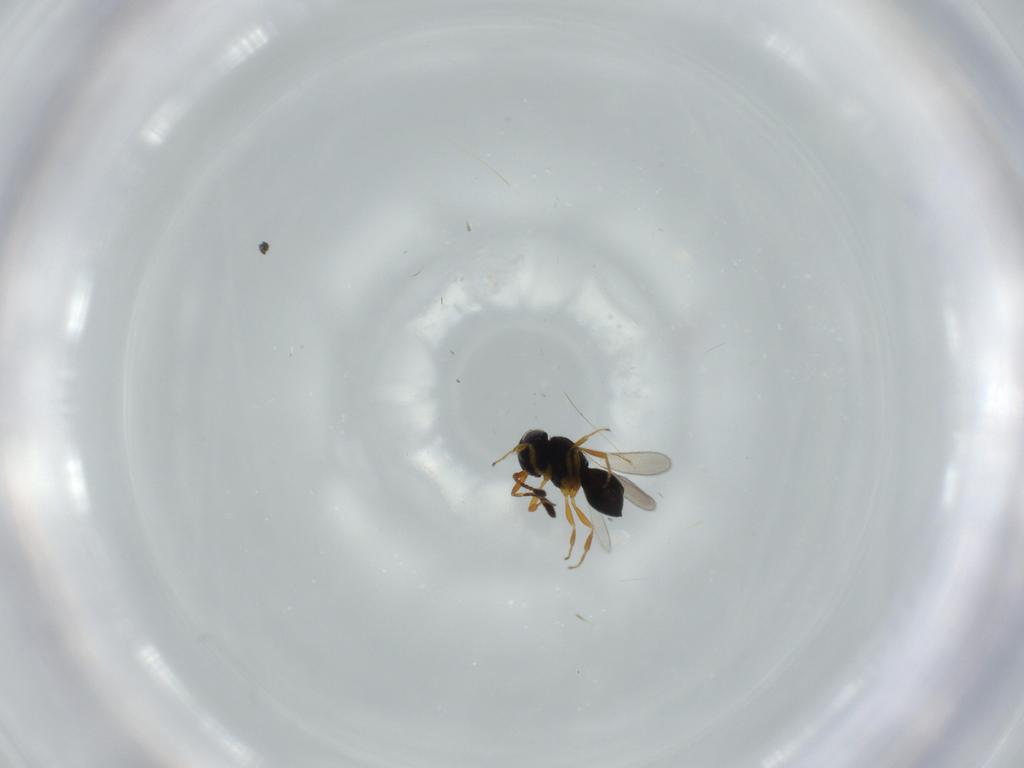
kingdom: Animalia
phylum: Arthropoda
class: Insecta
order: Hymenoptera
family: Scelionidae
